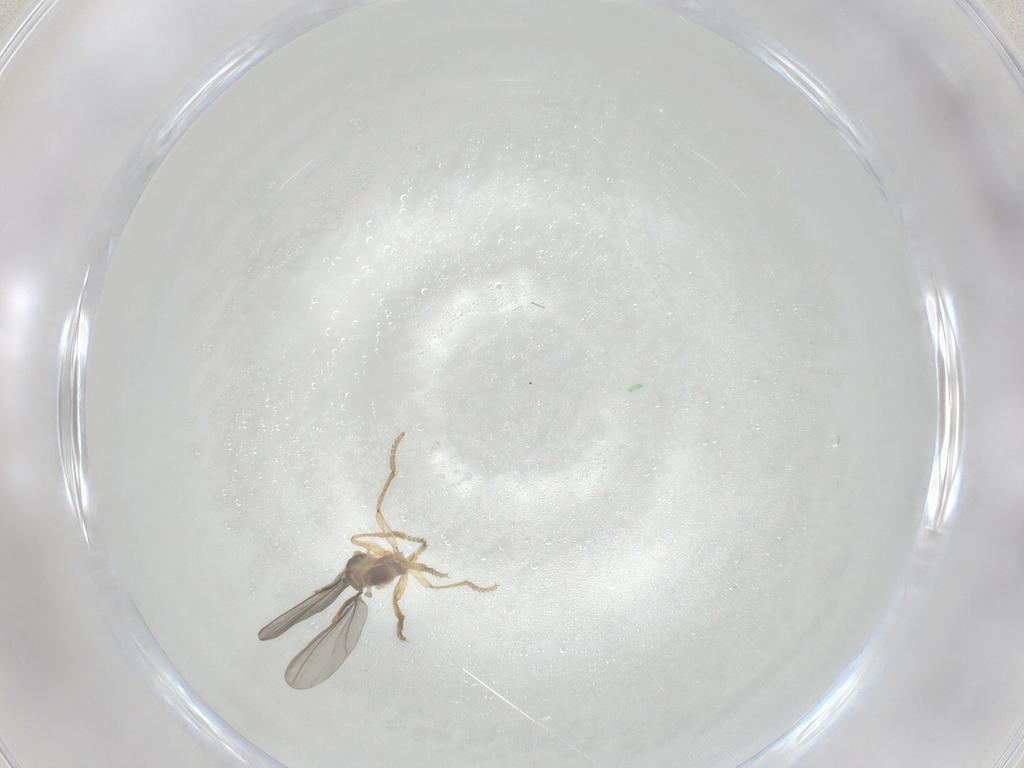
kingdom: Animalia
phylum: Arthropoda
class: Insecta
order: Diptera
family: Phoridae
